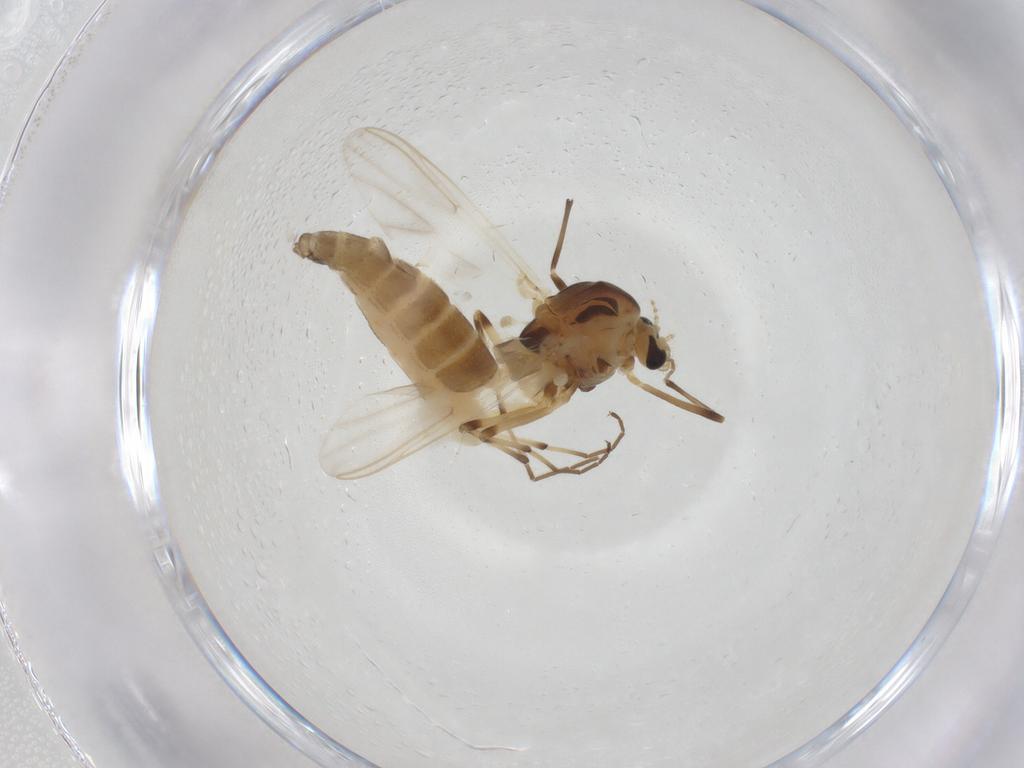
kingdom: Animalia
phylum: Arthropoda
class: Insecta
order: Diptera
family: Chironomidae
